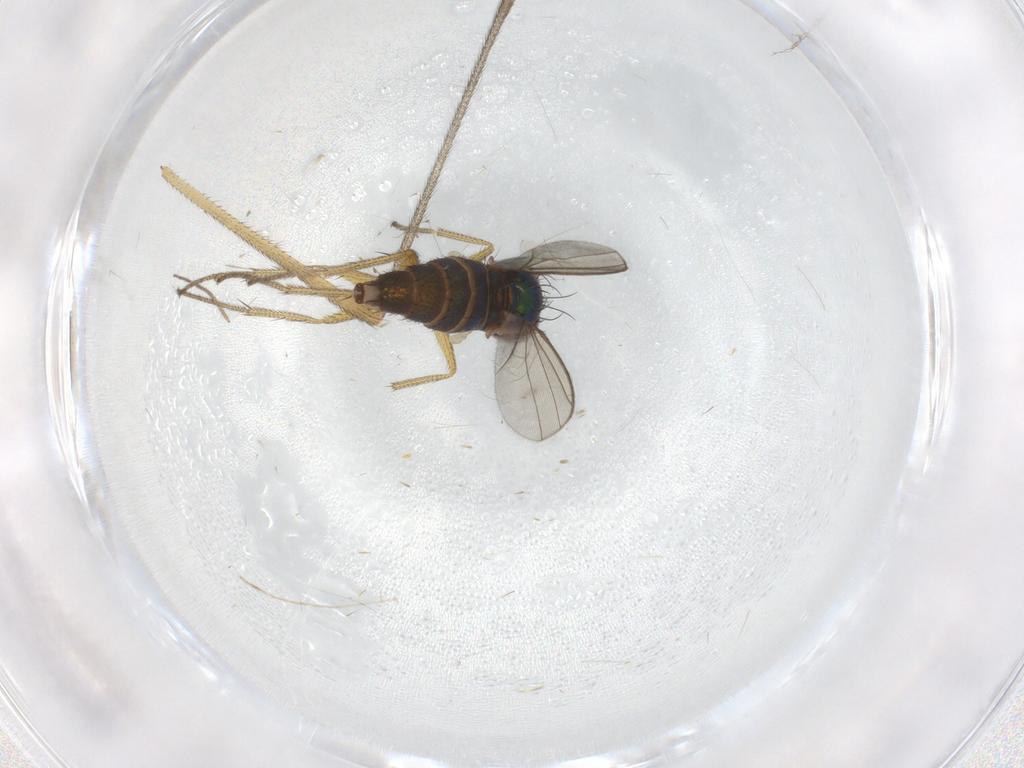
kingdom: Animalia
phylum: Arthropoda
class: Insecta
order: Diptera
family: Keroplatidae
